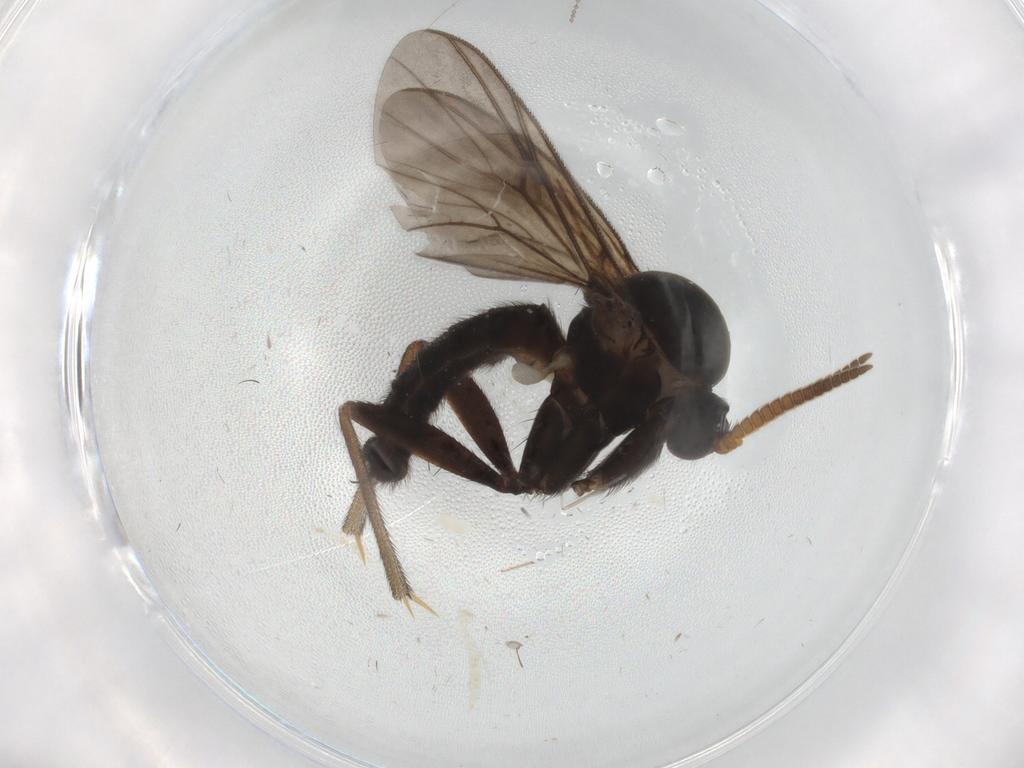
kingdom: Animalia
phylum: Arthropoda
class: Insecta
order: Diptera
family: Mycetophilidae
